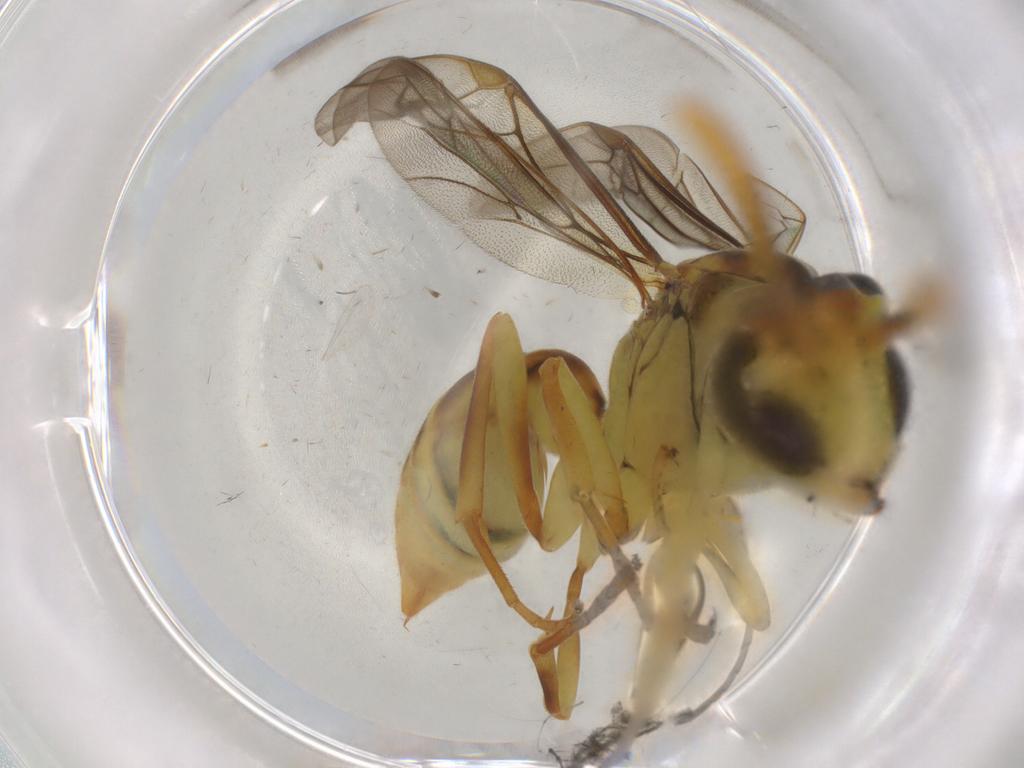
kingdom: Animalia
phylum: Arthropoda
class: Insecta
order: Hymenoptera
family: Vespidae
